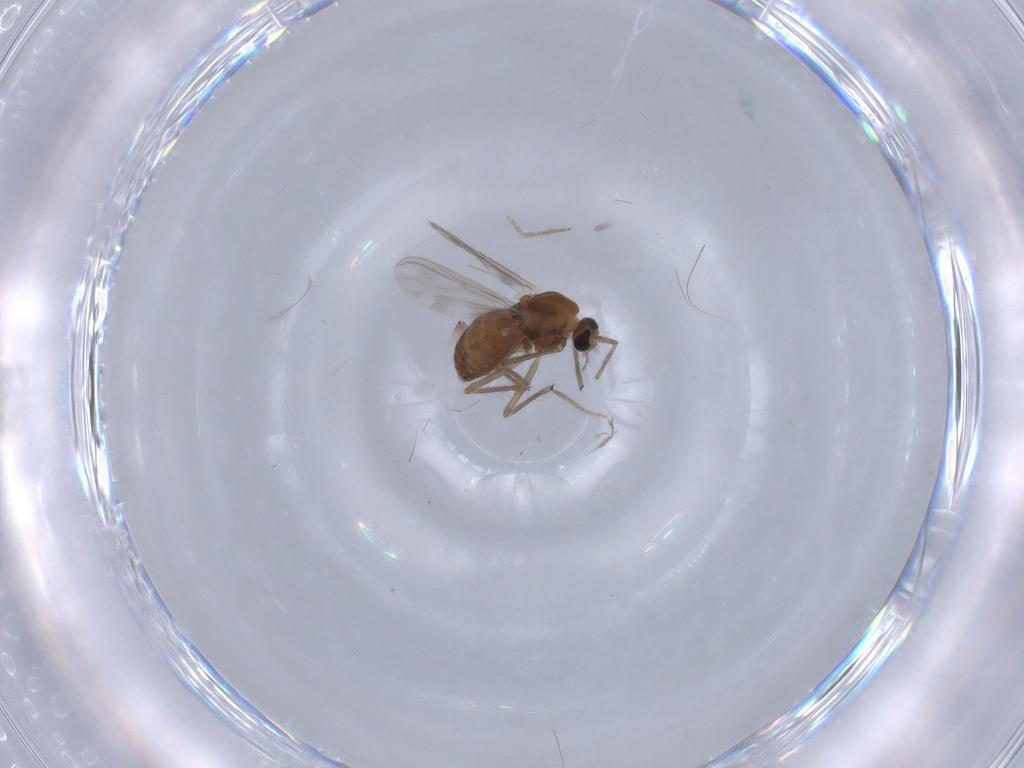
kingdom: Animalia
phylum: Arthropoda
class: Insecta
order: Diptera
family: Chironomidae
